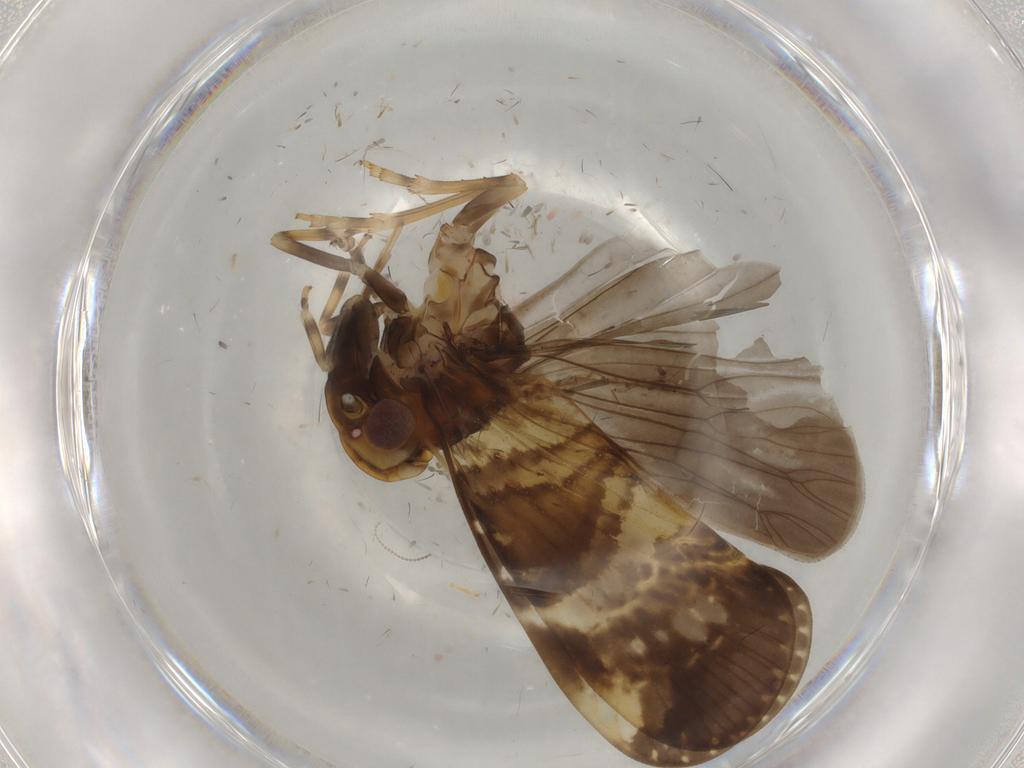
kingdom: Animalia
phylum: Arthropoda
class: Insecta
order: Hemiptera
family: Cixiidae
